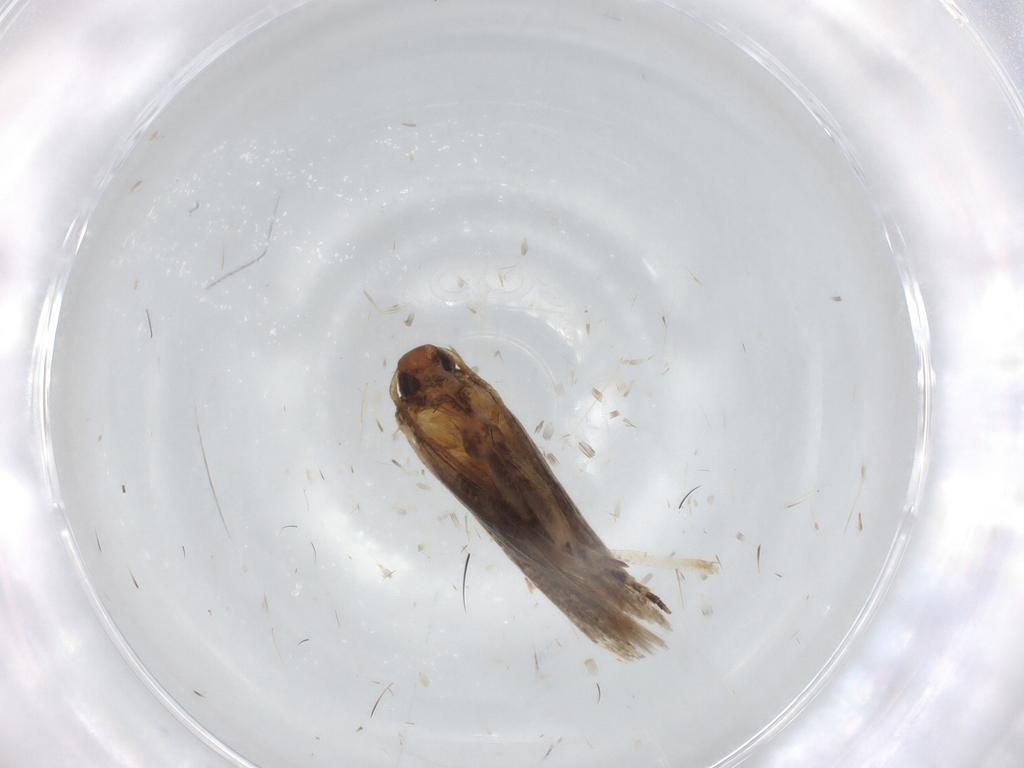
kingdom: Animalia
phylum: Arthropoda
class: Insecta
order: Lepidoptera
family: Gelechiidae
